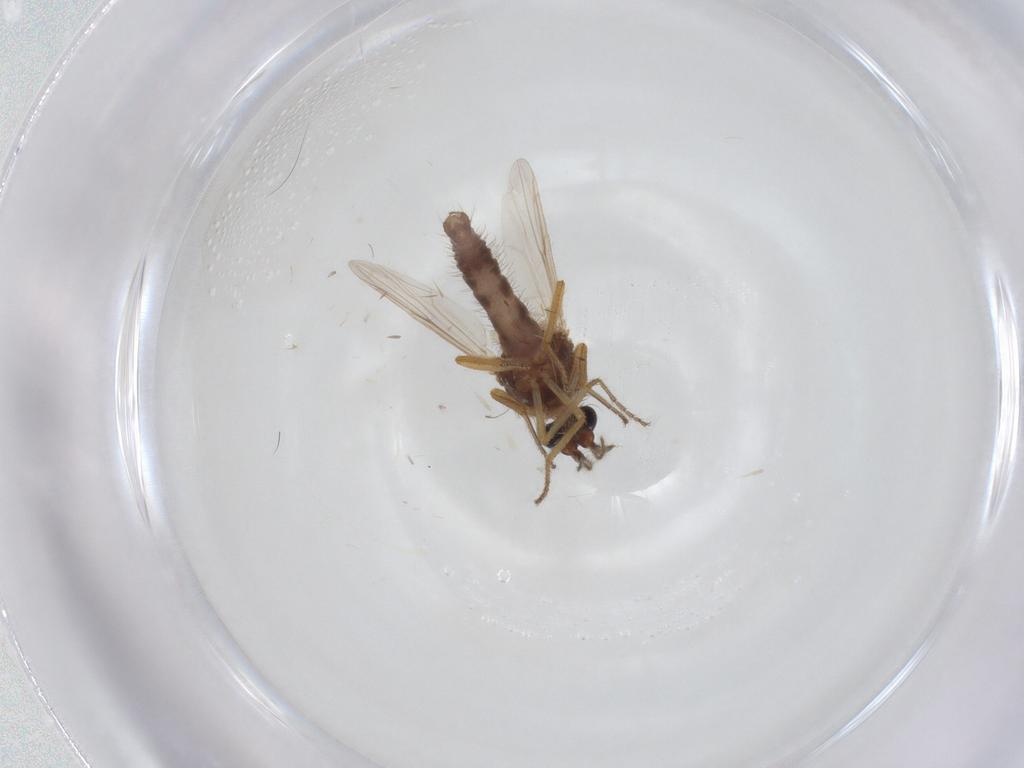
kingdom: Animalia
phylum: Arthropoda
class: Insecta
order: Diptera
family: Ceratopogonidae
